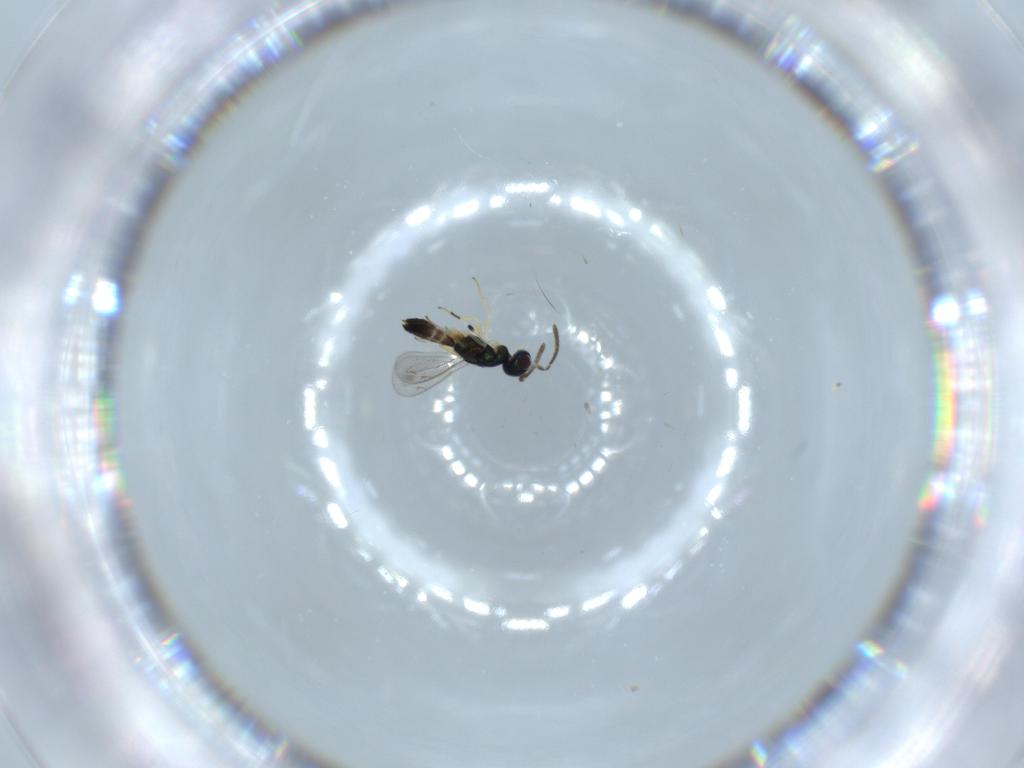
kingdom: Animalia
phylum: Arthropoda
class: Insecta
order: Hymenoptera
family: Eupelmidae
